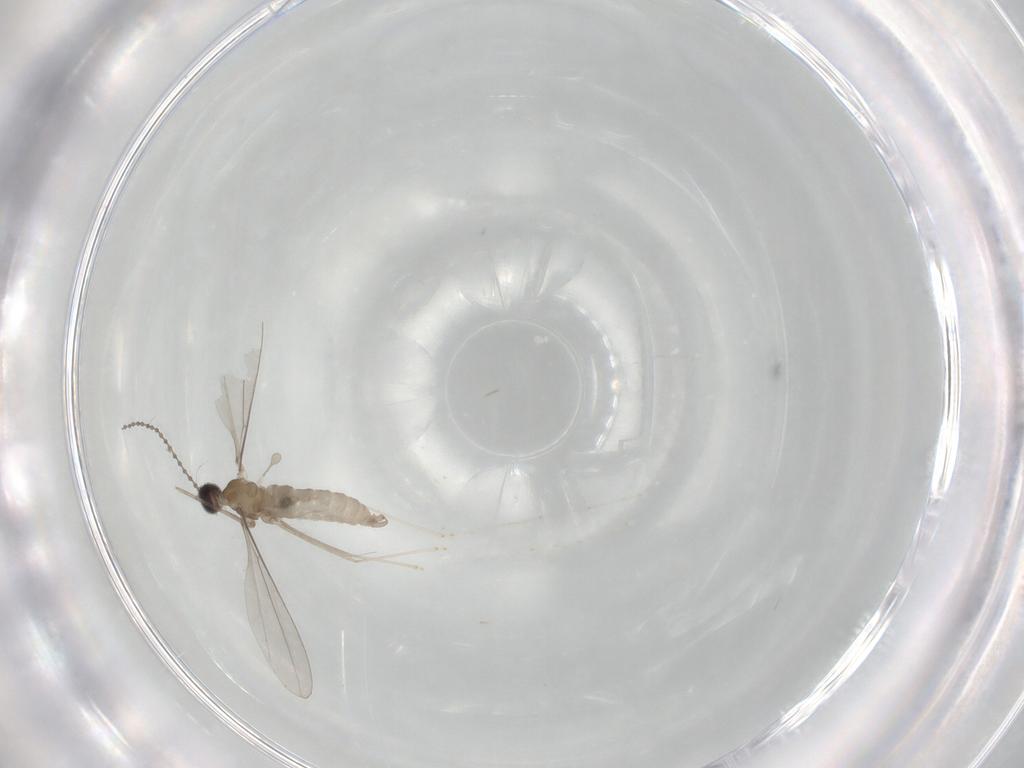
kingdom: Animalia
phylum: Arthropoda
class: Insecta
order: Diptera
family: Cecidomyiidae
